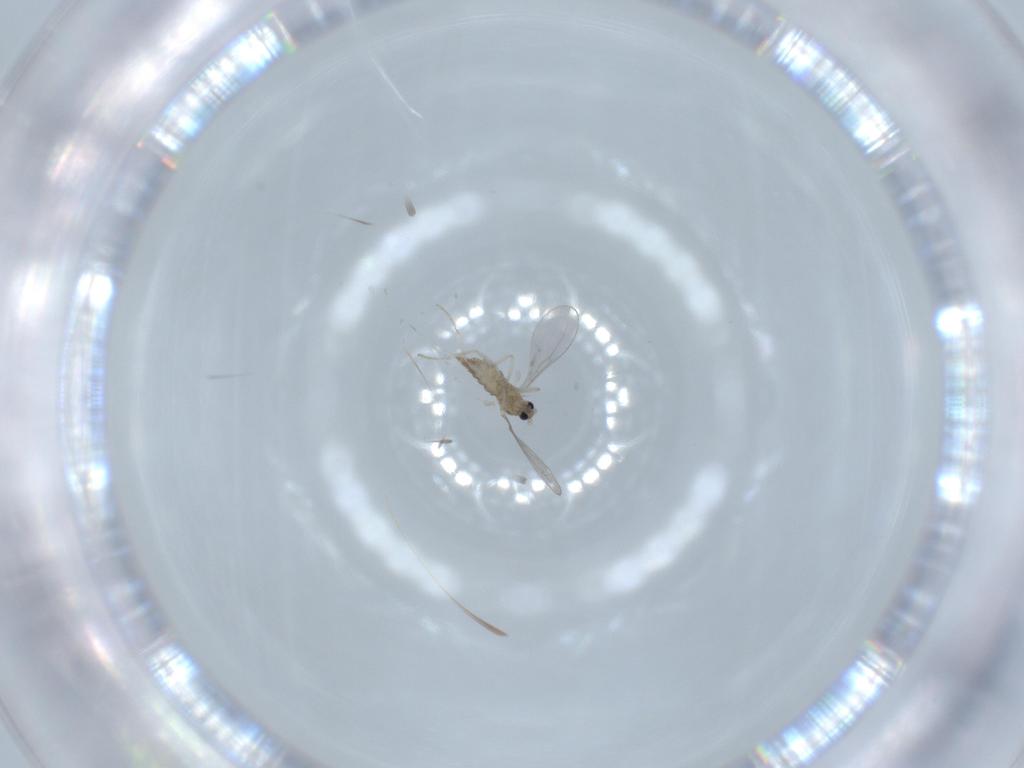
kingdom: Animalia
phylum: Arthropoda
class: Insecta
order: Diptera
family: Cecidomyiidae
